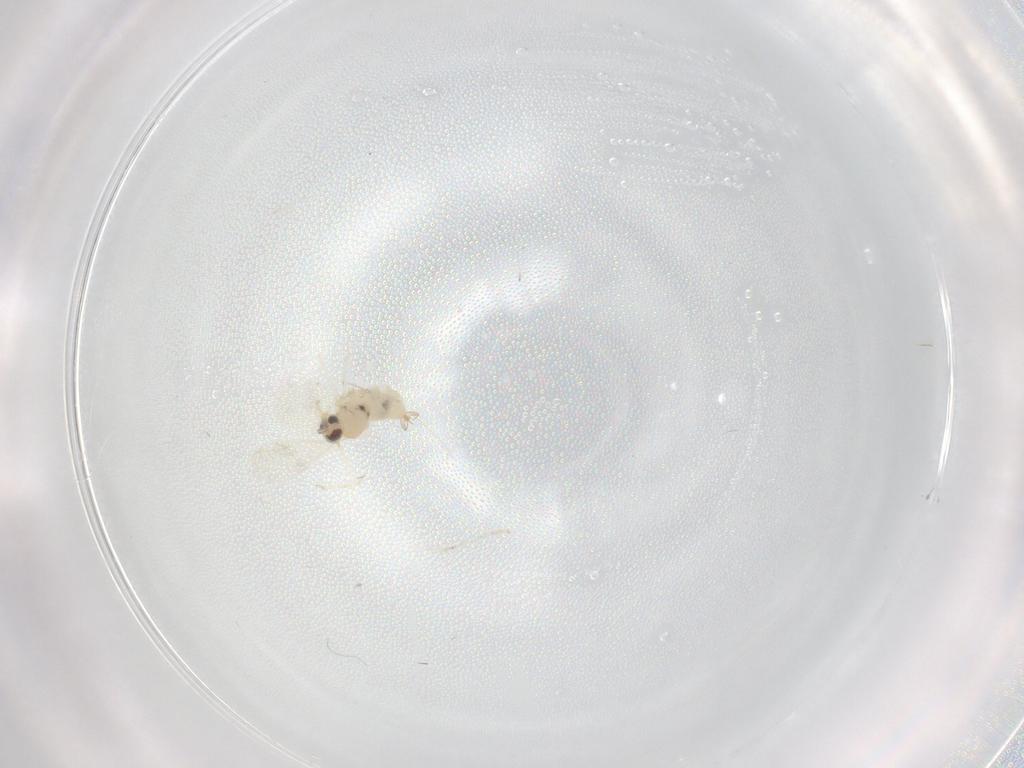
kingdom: Animalia
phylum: Arthropoda
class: Insecta
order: Diptera
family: Cecidomyiidae
